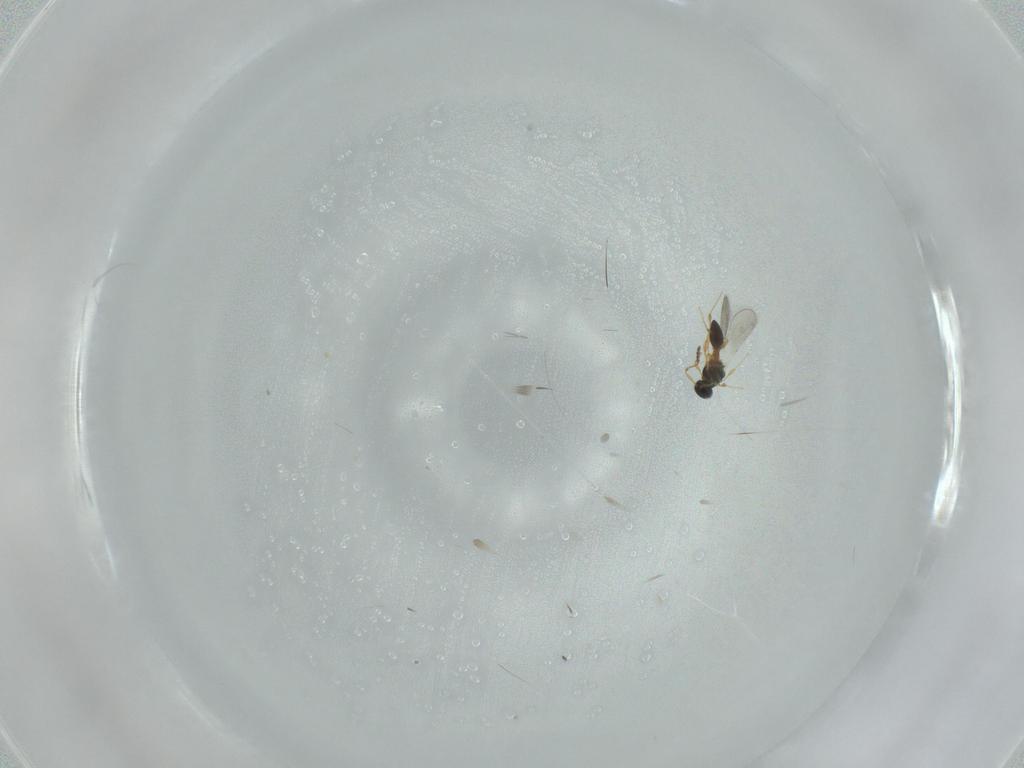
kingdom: Animalia
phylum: Arthropoda
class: Insecta
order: Hymenoptera
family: Platygastridae
